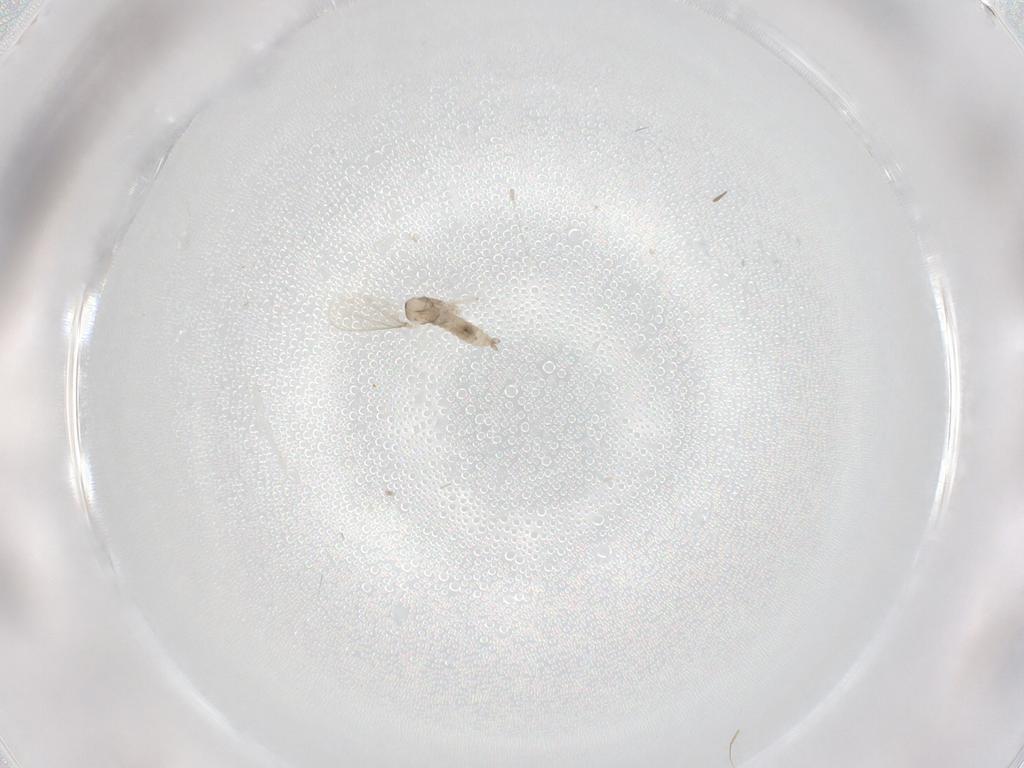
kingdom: Animalia
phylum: Arthropoda
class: Insecta
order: Diptera
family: Cecidomyiidae
